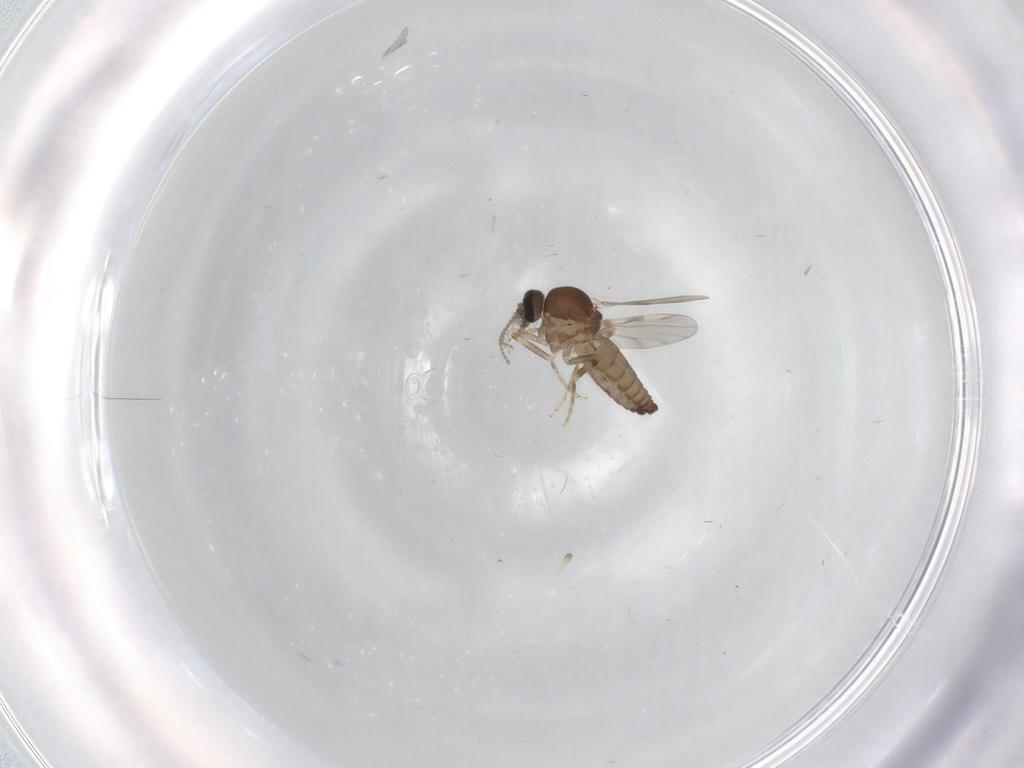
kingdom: Animalia
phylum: Arthropoda
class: Insecta
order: Diptera
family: Ceratopogonidae
